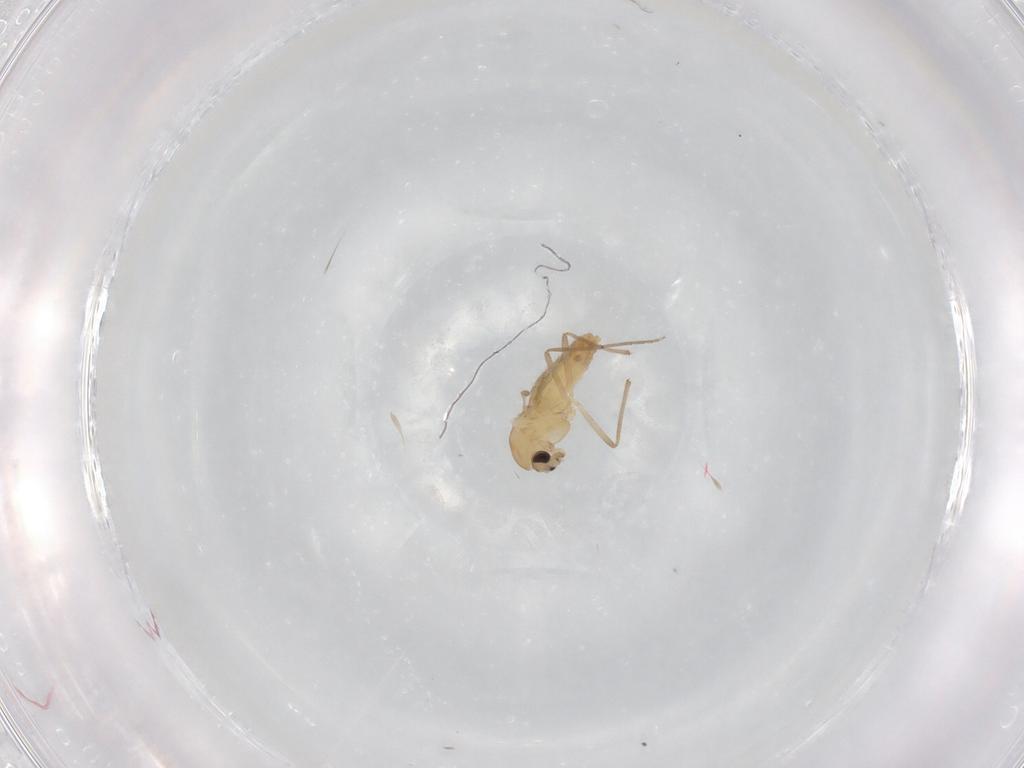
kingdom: Animalia
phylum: Arthropoda
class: Insecta
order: Diptera
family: Chironomidae
